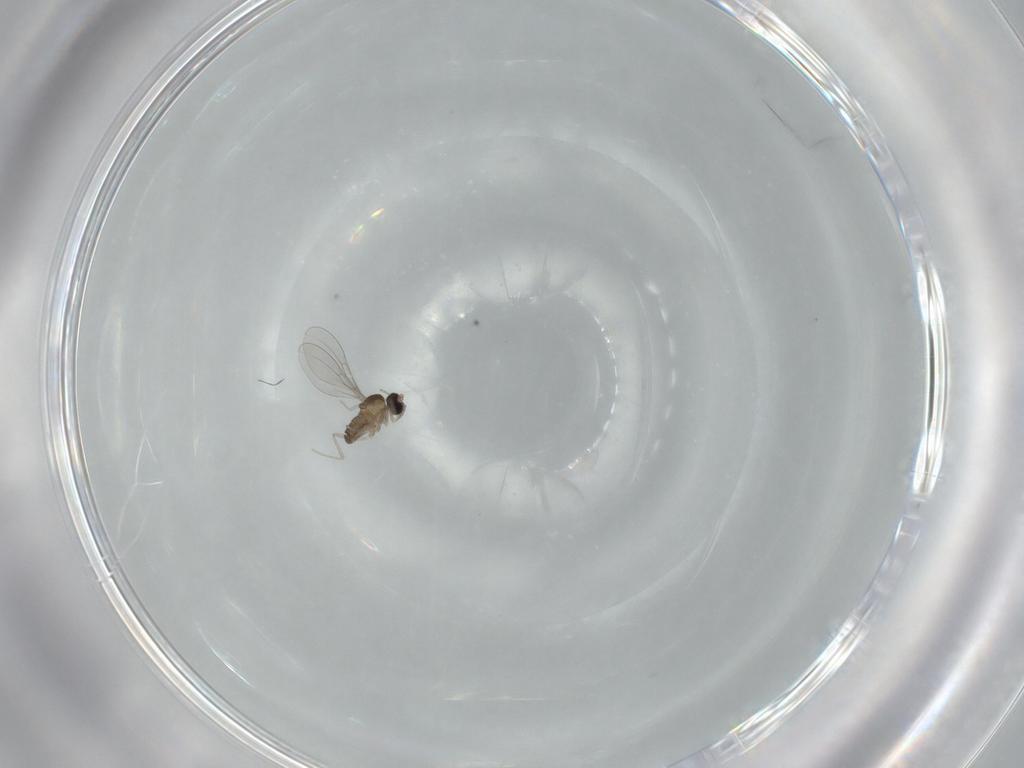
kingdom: Animalia
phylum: Arthropoda
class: Insecta
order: Diptera
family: Cecidomyiidae
